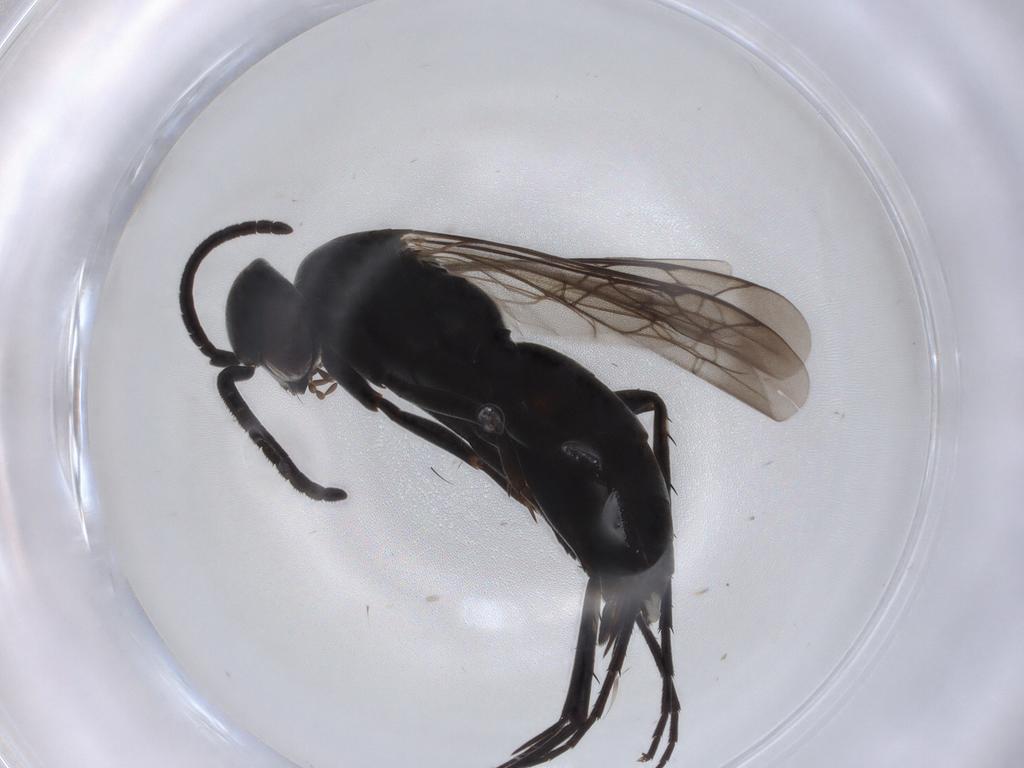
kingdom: Animalia
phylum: Arthropoda
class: Insecta
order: Hymenoptera
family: Pompilidae
